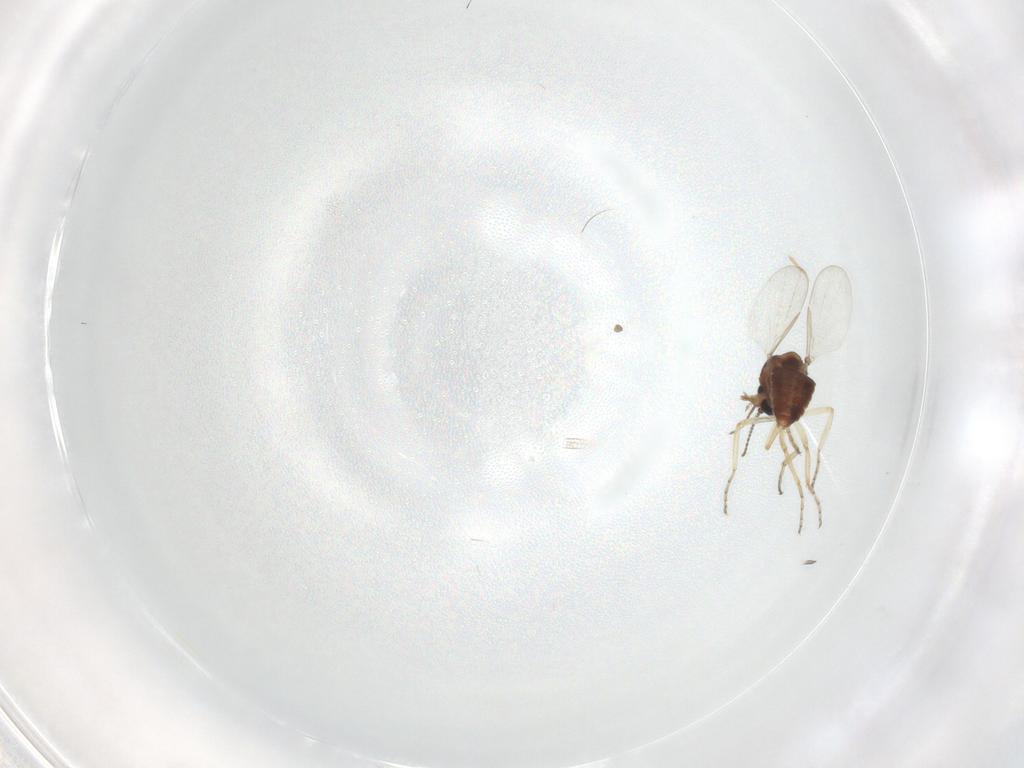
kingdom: Animalia
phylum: Arthropoda
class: Insecta
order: Diptera
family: Ceratopogonidae
